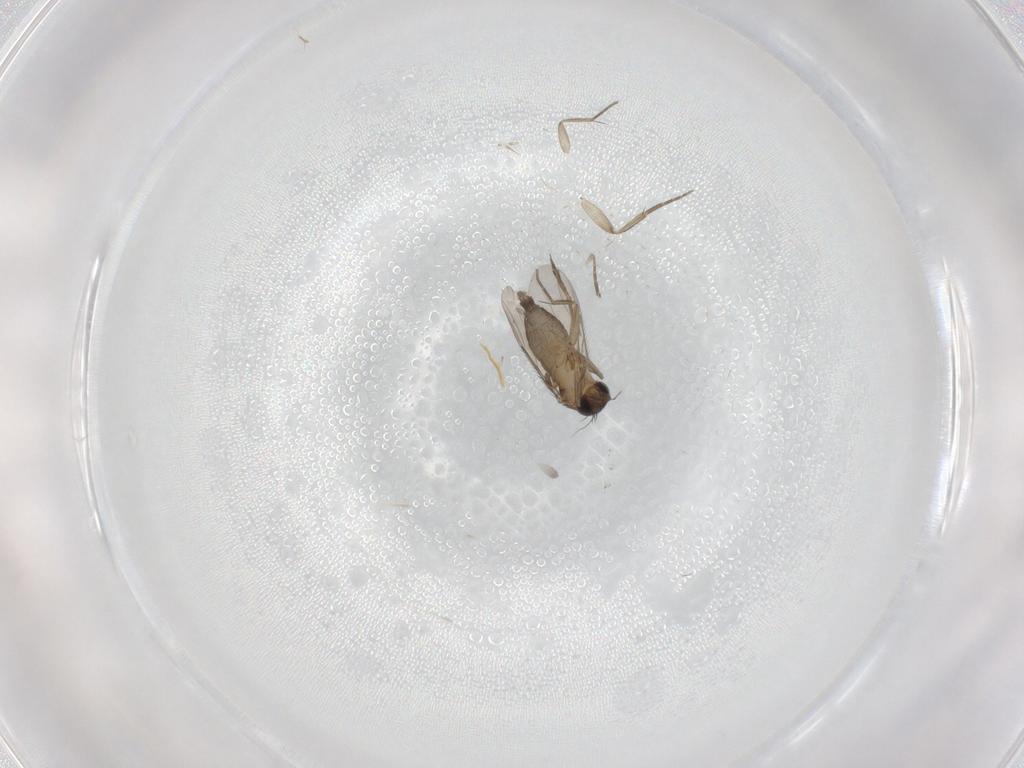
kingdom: Animalia
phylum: Arthropoda
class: Insecta
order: Diptera
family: Phoridae
